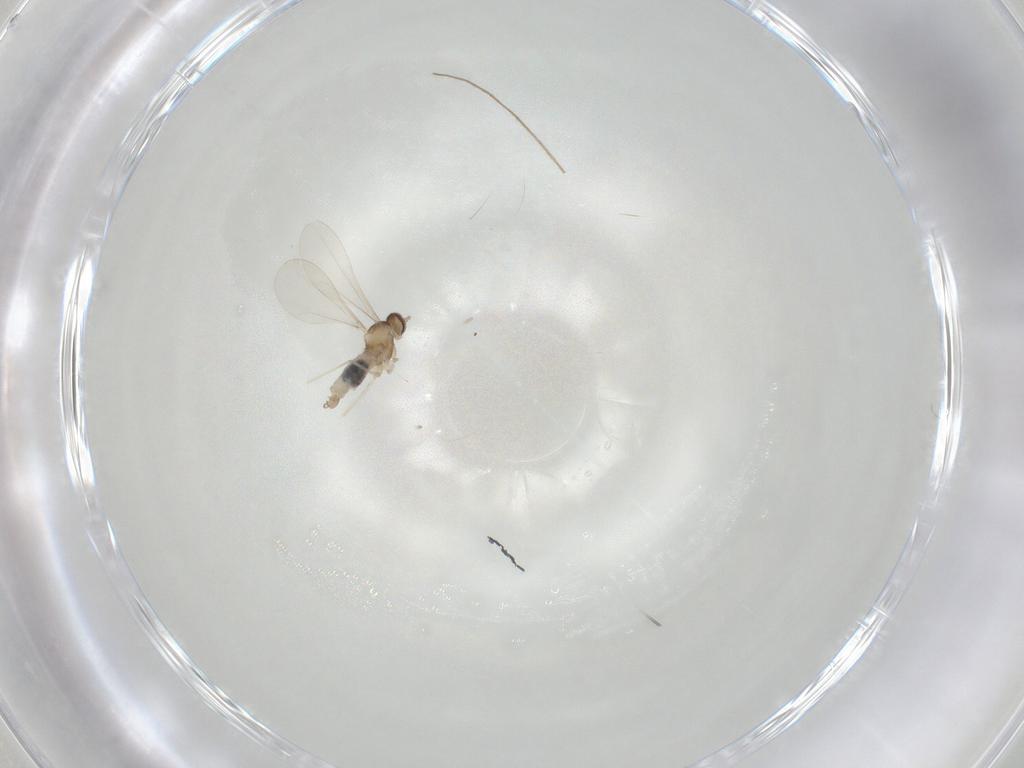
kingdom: Animalia
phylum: Arthropoda
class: Insecta
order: Diptera
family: Cecidomyiidae
